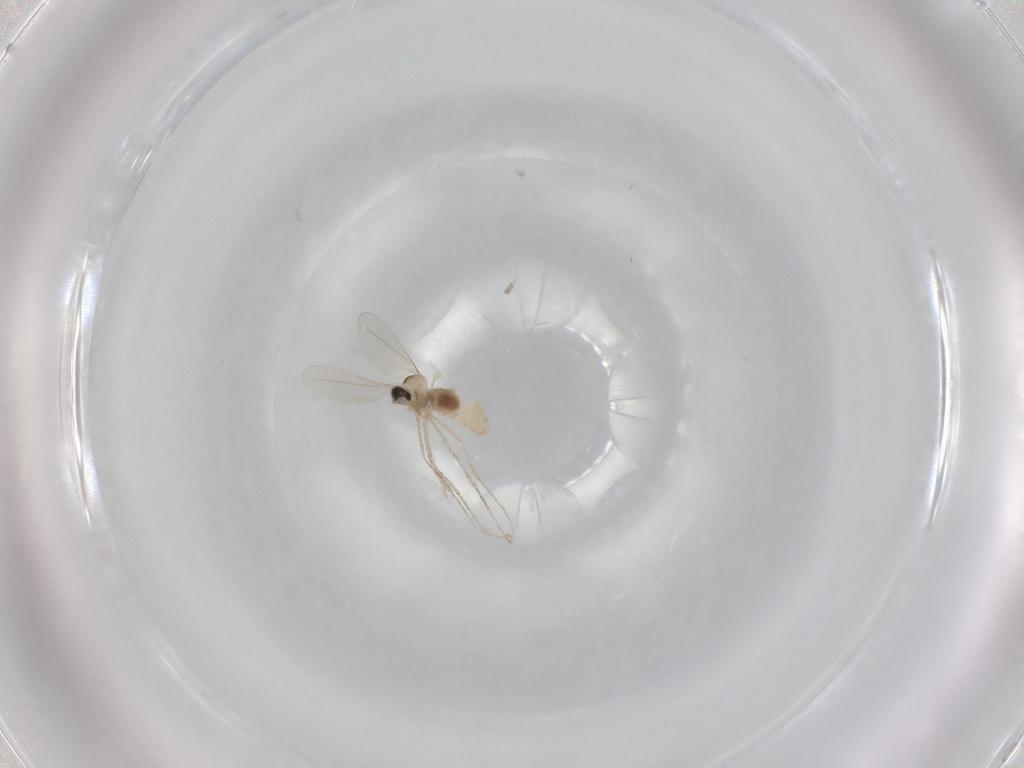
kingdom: Animalia
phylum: Arthropoda
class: Insecta
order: Diptera
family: Cecidomyiidae
